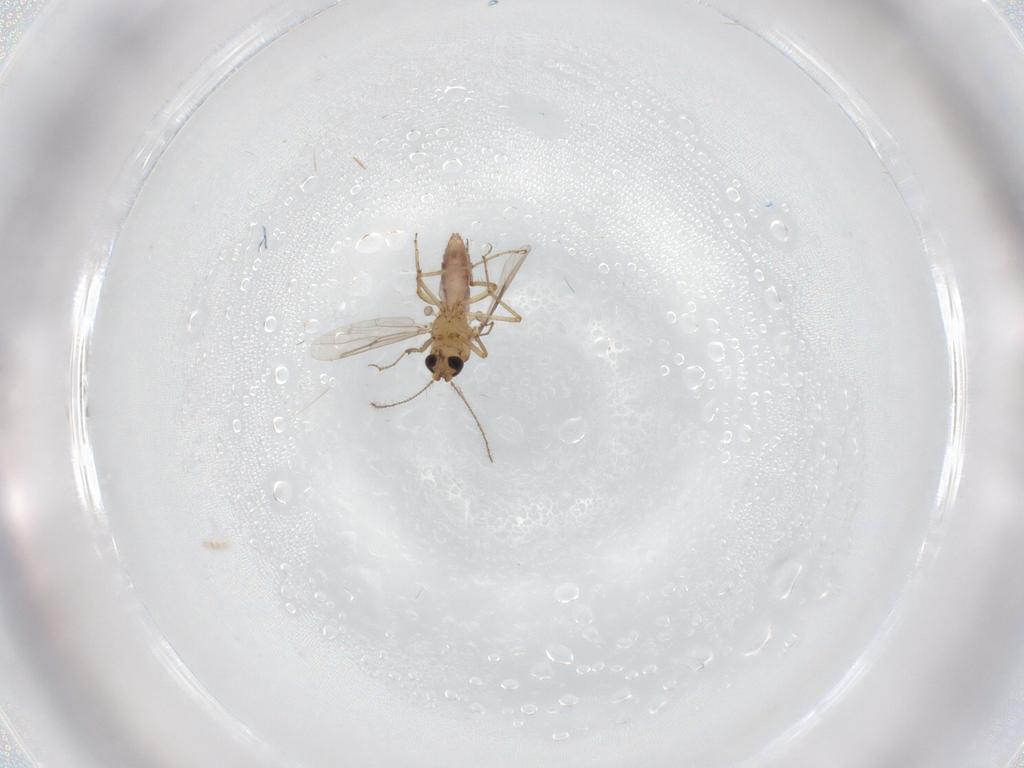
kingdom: Animalia
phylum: Arthropoda
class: Insecta
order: Diptera
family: Ceratopogonidae
